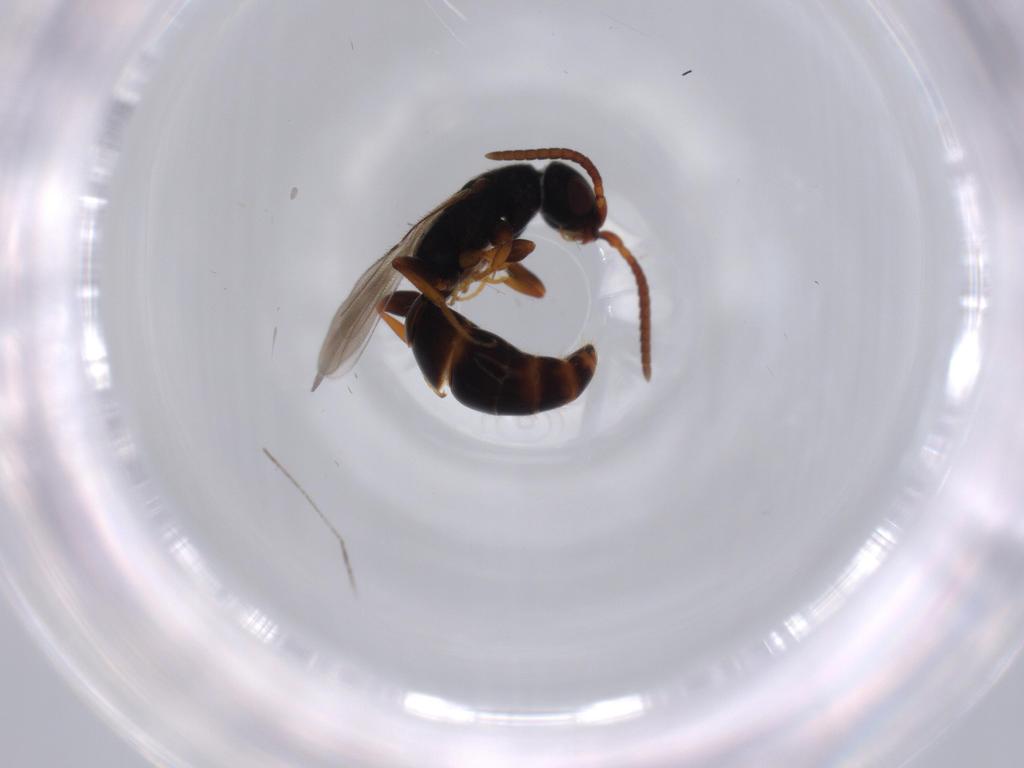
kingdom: Animalia
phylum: Arthropoda
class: Insecta
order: Hymenoptera
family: Bethylidae
